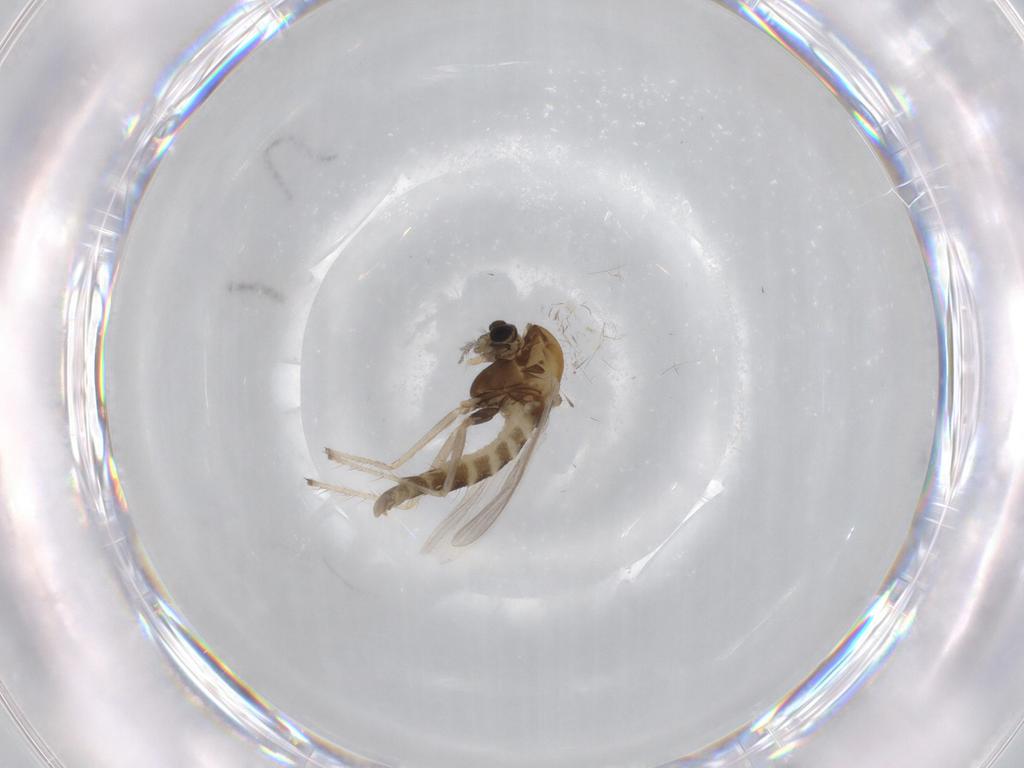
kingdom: Animalia
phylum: Arthropoda
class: Insecta
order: Diptera
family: Chironomidae
